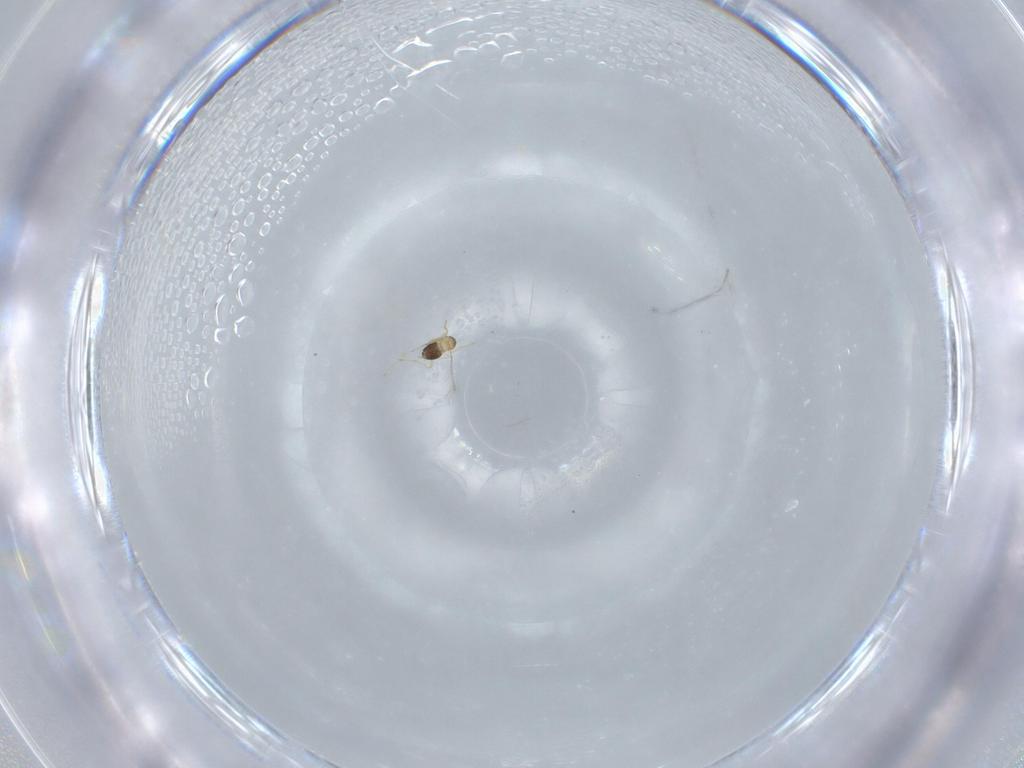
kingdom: Animalia
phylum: Arthropoda
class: Insecta
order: Hymenoptera
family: Mymaridae
